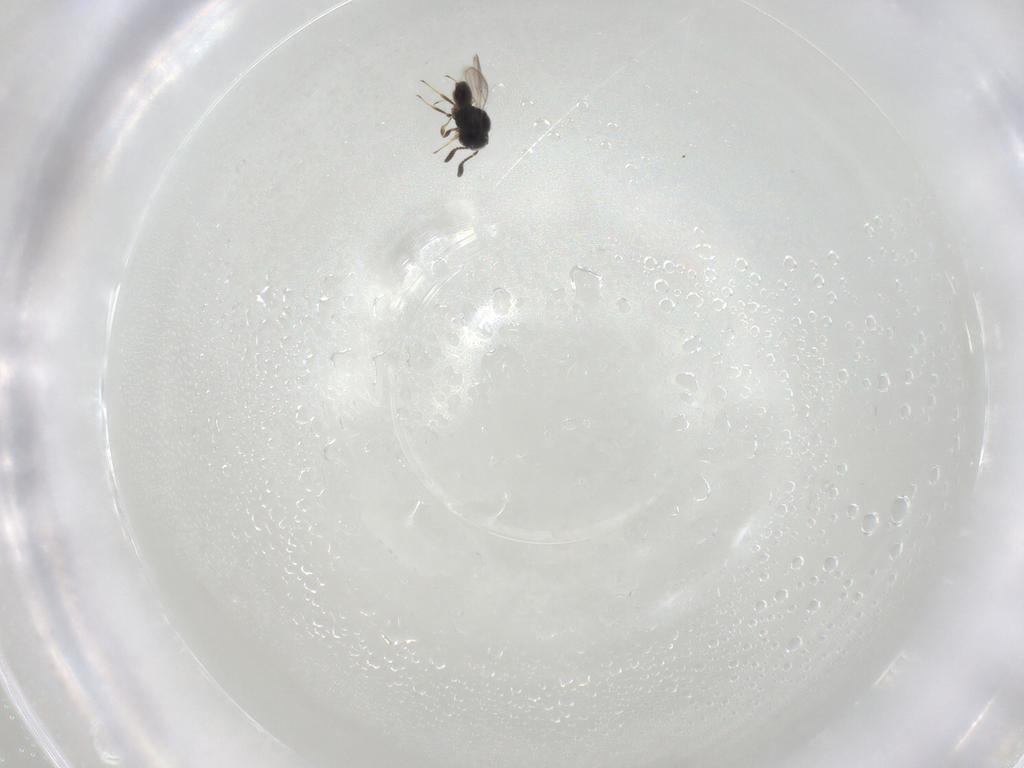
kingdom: Animalia
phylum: Arthropoda
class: Insecta
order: Hymenoptera
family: Scelionidae
